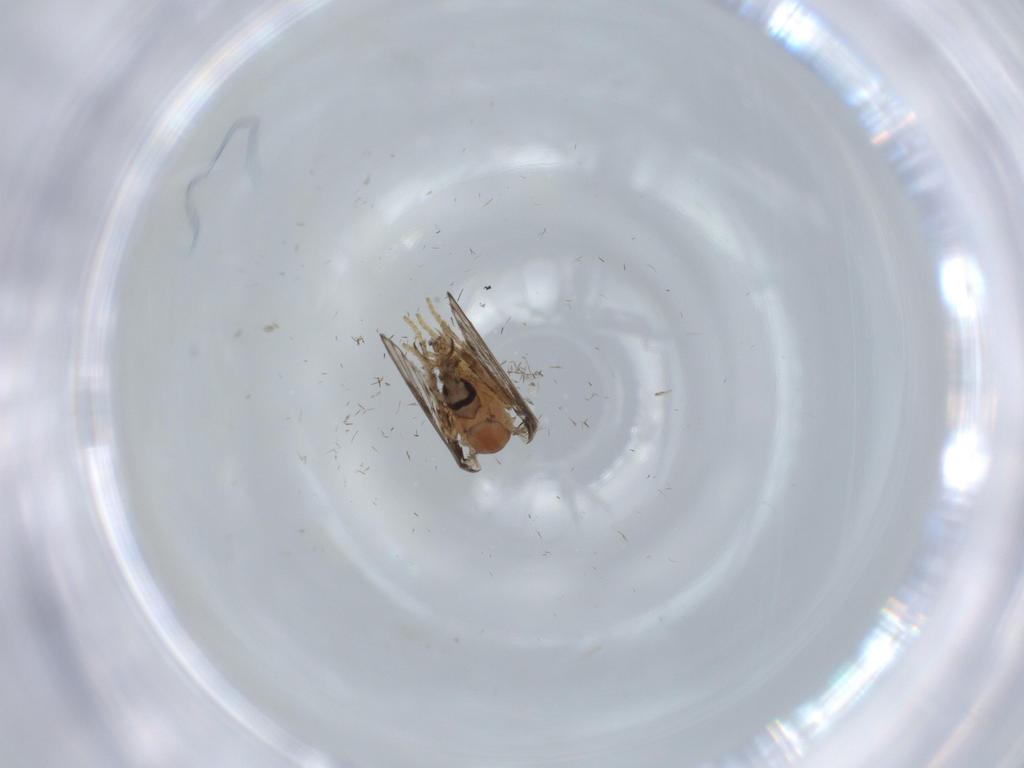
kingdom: Animalia
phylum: Arthropoda
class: Insecta
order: Diptera
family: Psychodidae
